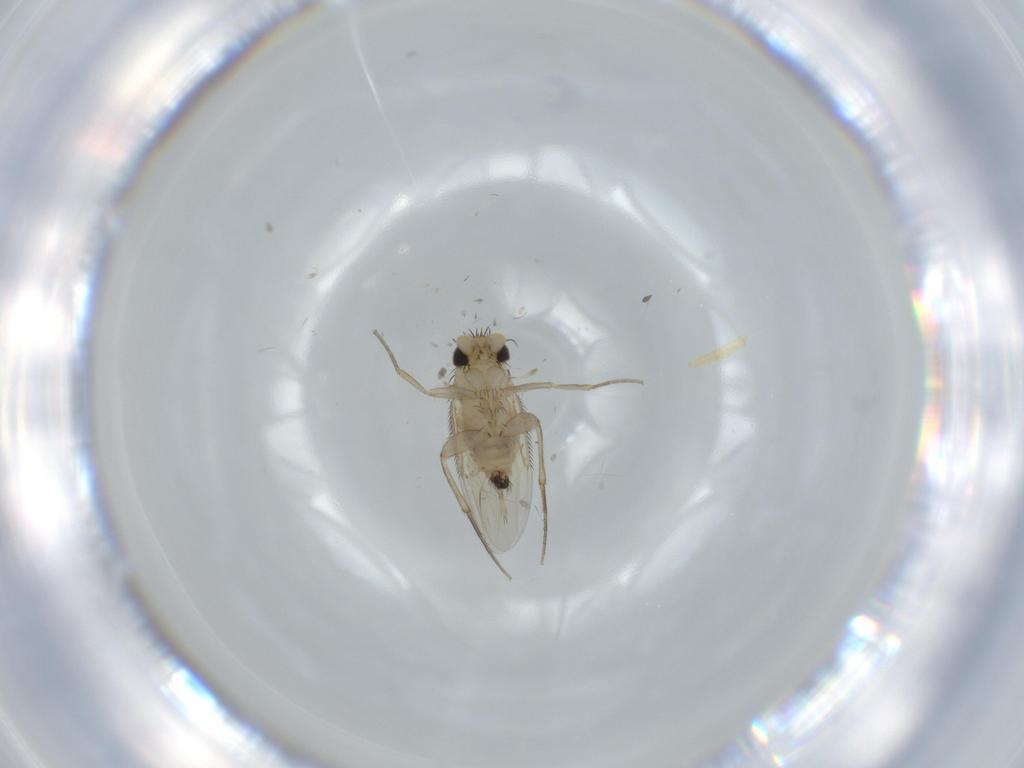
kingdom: Animalia
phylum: Arthropoda
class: Insecta
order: Diptera
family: Phoridae
